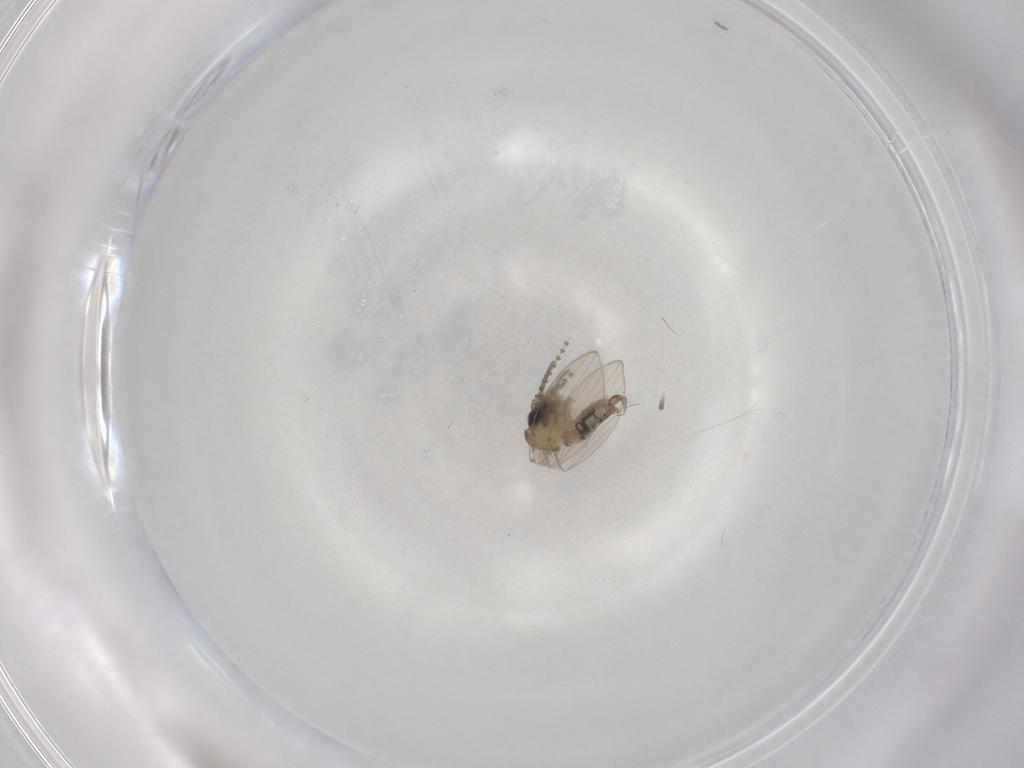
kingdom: Animalia
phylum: Arthropoda
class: Insecta
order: Diptera
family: Psychodidae
